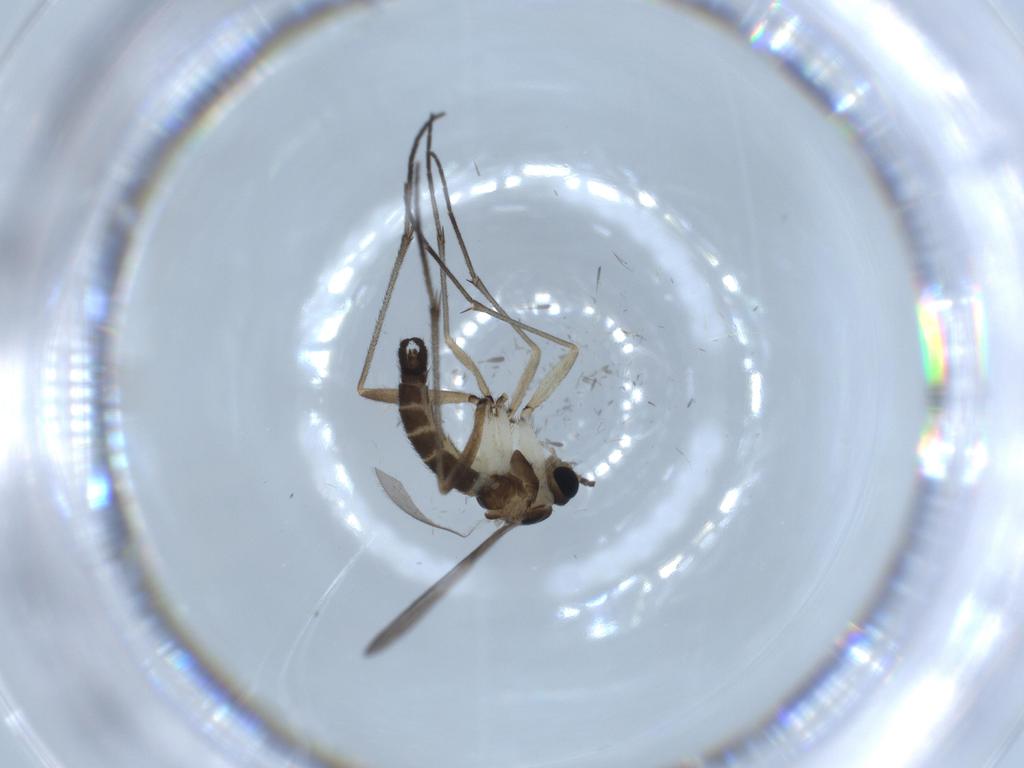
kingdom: Animalia
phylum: Arthropoda
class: Insecta
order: Diptera
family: Sciaridae
